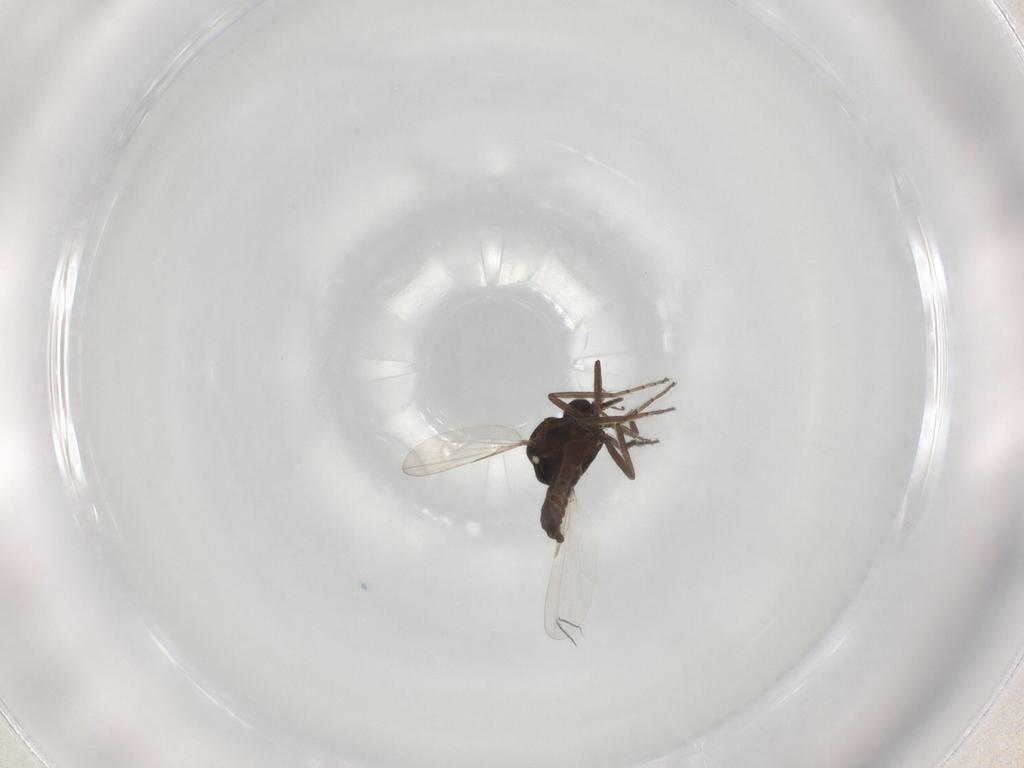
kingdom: Animalia
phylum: Arthropoda
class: Insecta
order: Diptera
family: Ceratopogonidae
